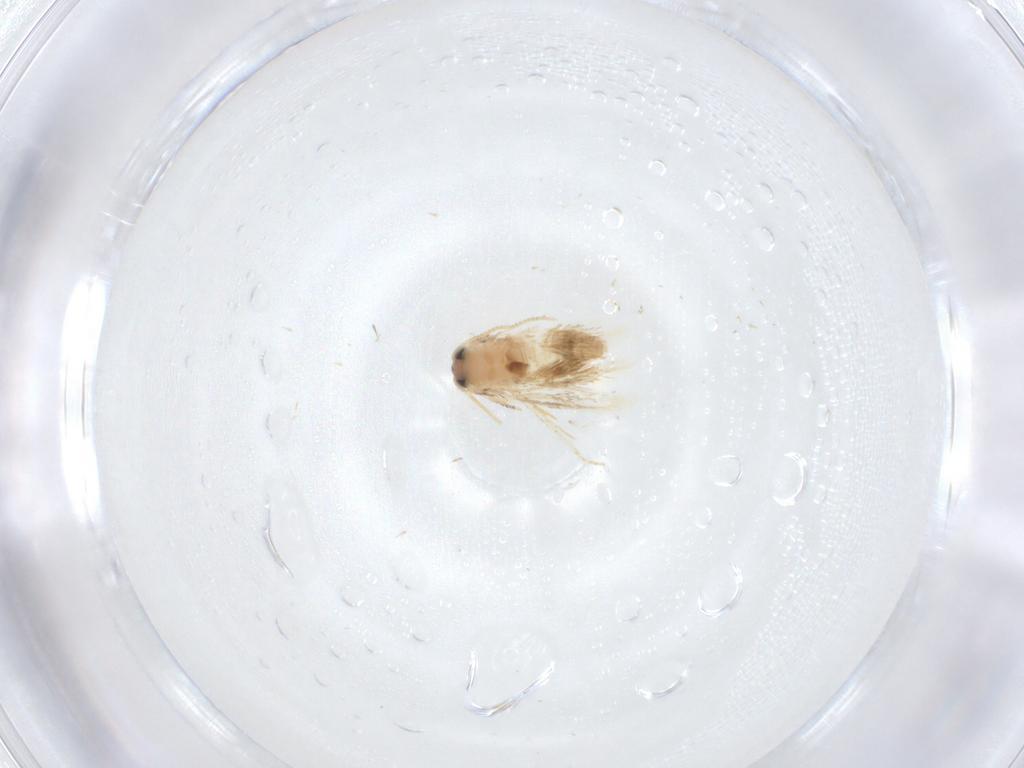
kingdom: Animalia
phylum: Arthropoda
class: Insecta
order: Lepidoptera
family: Nepticulidae
